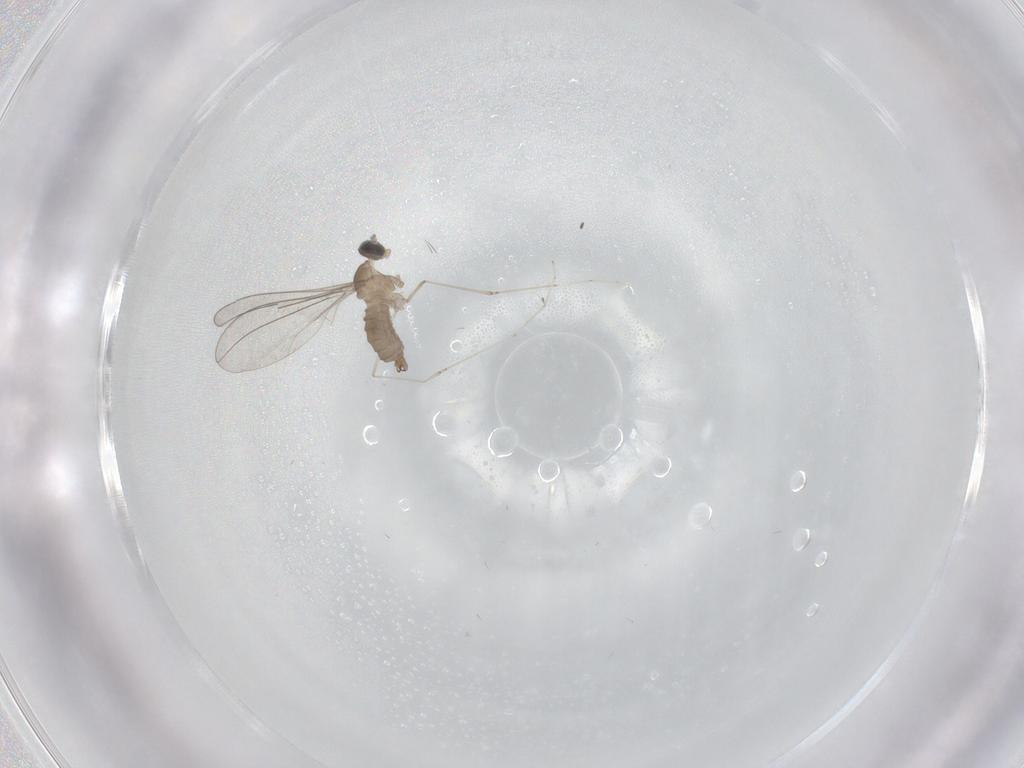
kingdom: Animalia
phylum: Arthropoda
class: Insecta
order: Diptera
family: Cecidomyiidae
